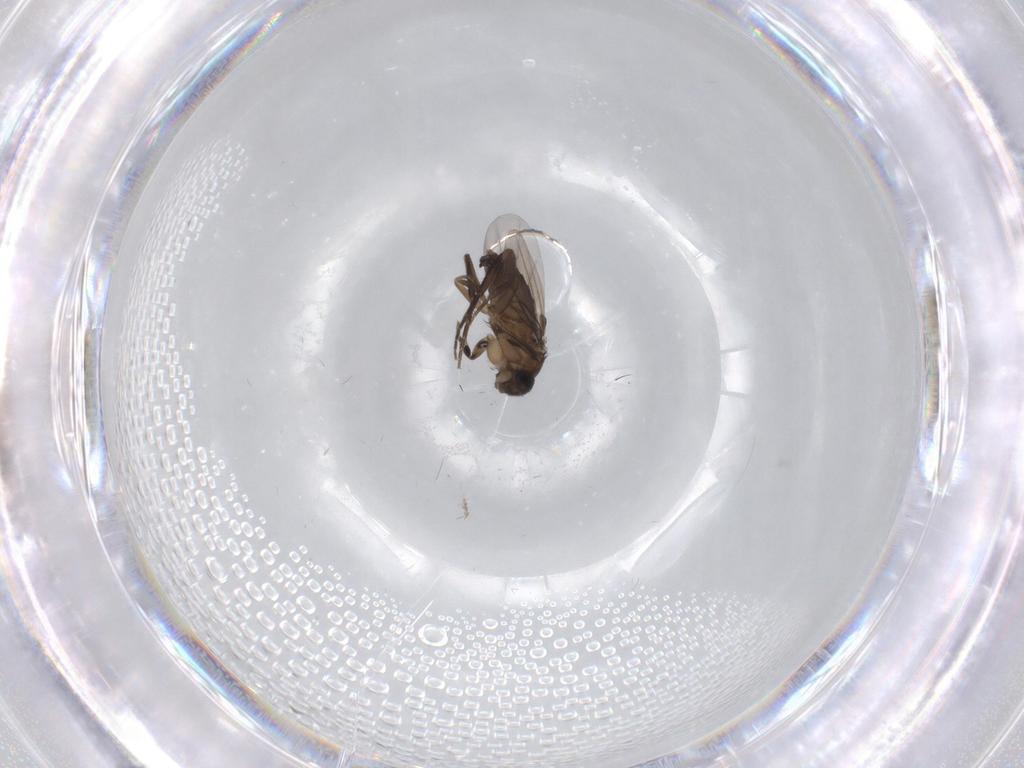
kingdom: Animalia
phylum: Arthropoda
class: Insecta
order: Diptera
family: Phoridae
